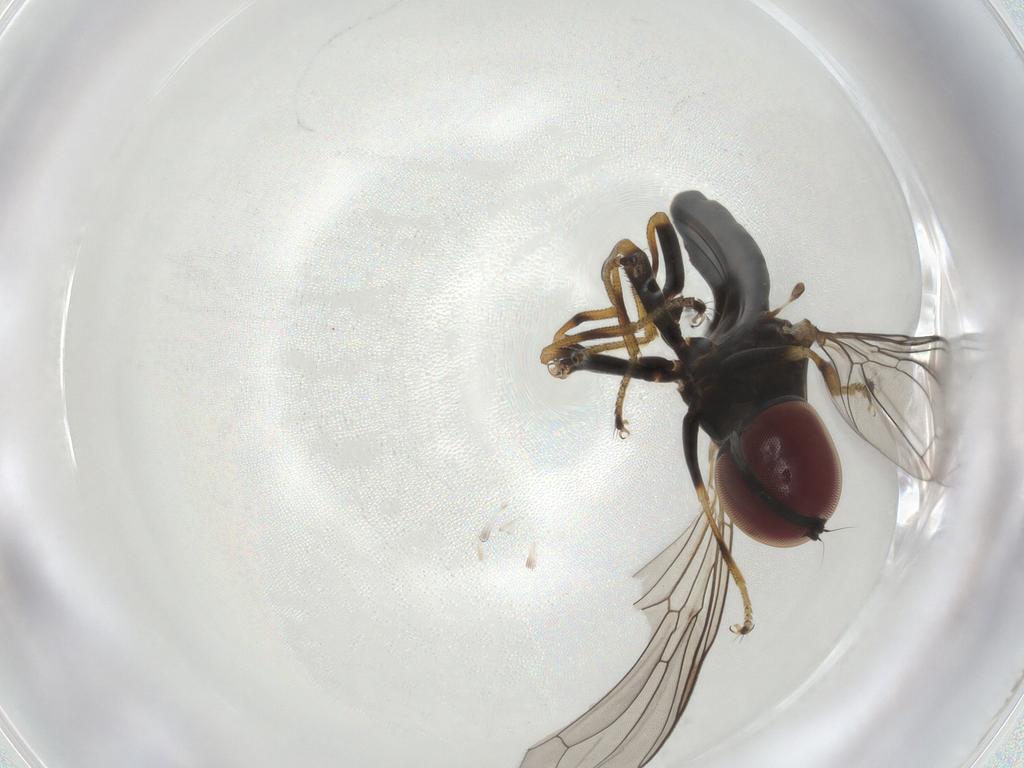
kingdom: Animalia
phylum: Arthropoda
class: Insecta
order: Diptera
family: Pipunculidae
